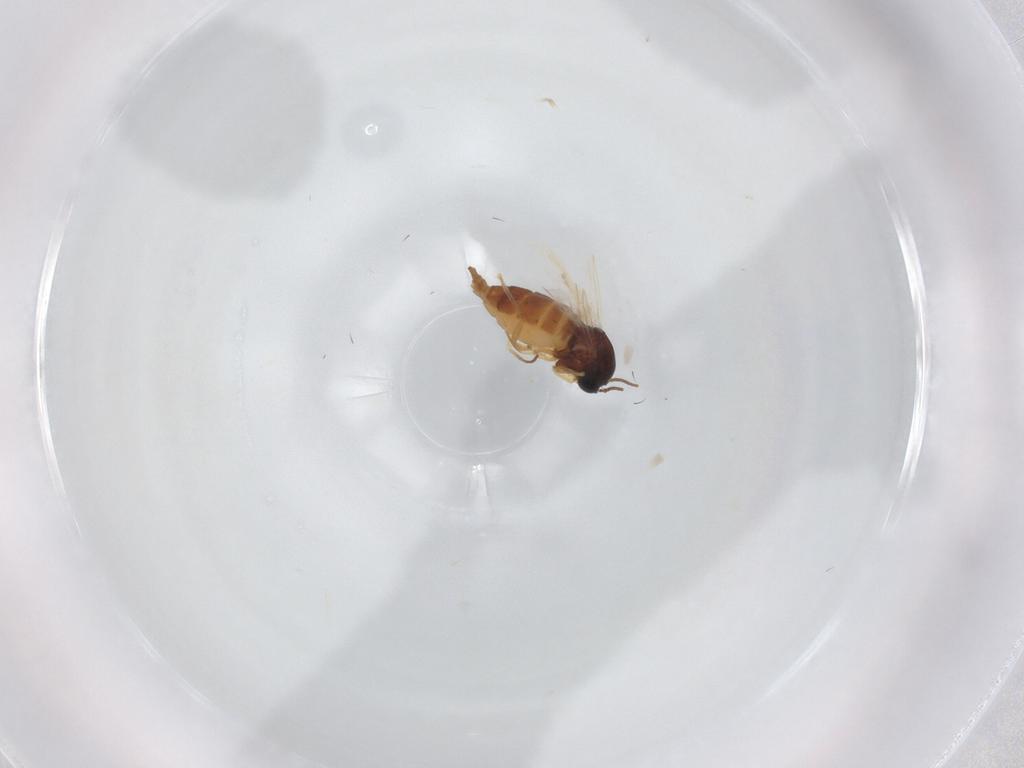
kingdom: Animalia
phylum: Arthropoda
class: Insecta
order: Diptera
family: Sciaridae
